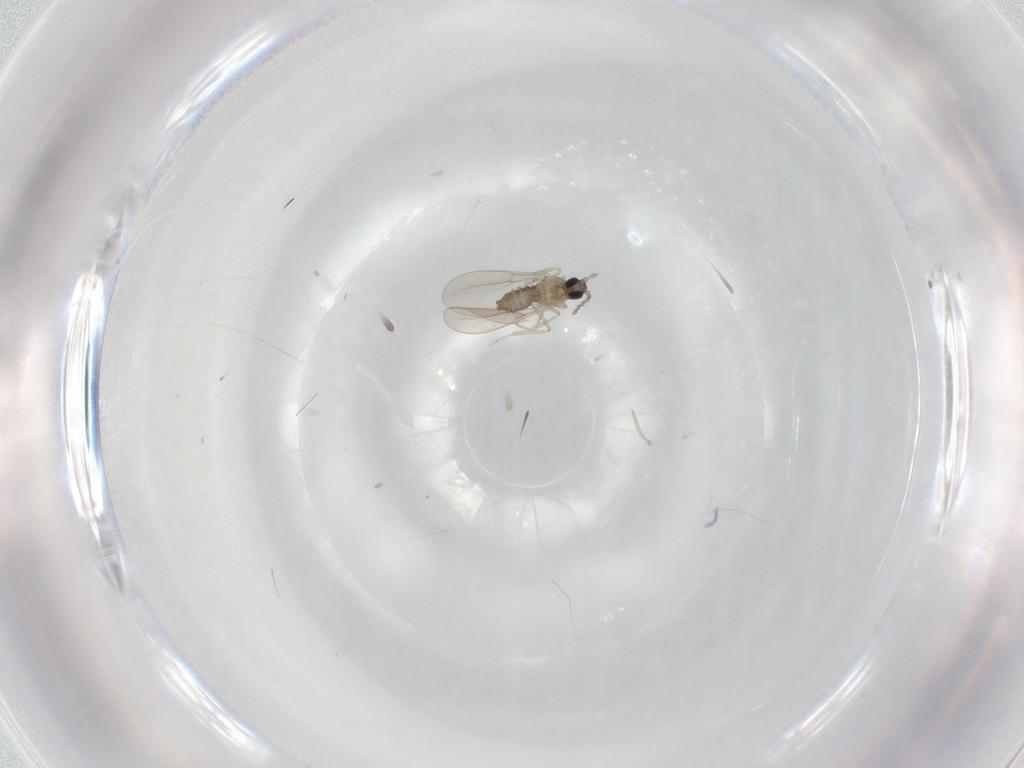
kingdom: Animalia
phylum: Arthropoda
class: Insecta
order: Diptera
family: Cecidomyiidae
